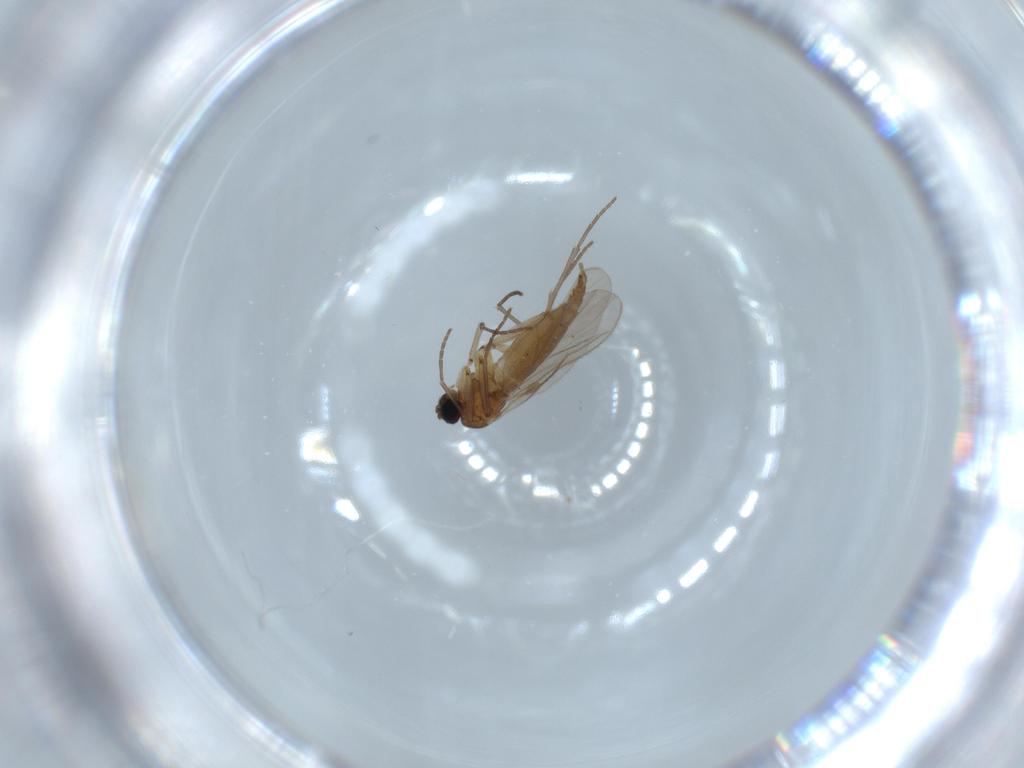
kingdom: Animalia
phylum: Arthropoda
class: Insecta
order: Diptera
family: Sciaridae
